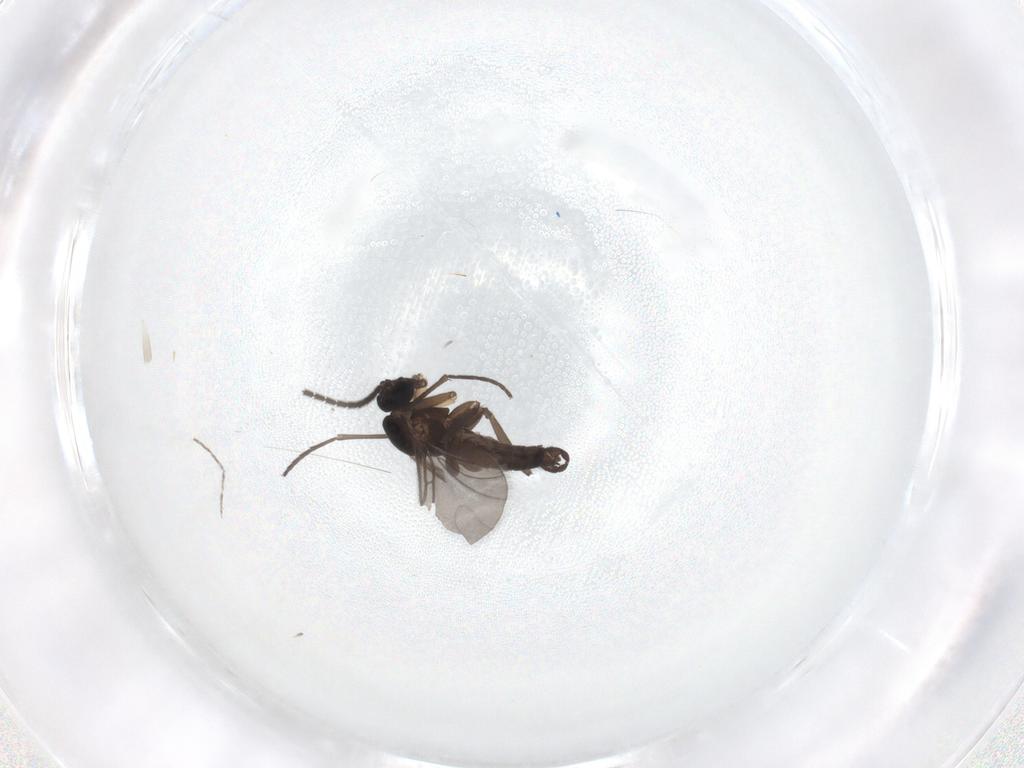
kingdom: Animalia
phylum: Arthropoda
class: Insecta
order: Diptera
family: Sciaridae
